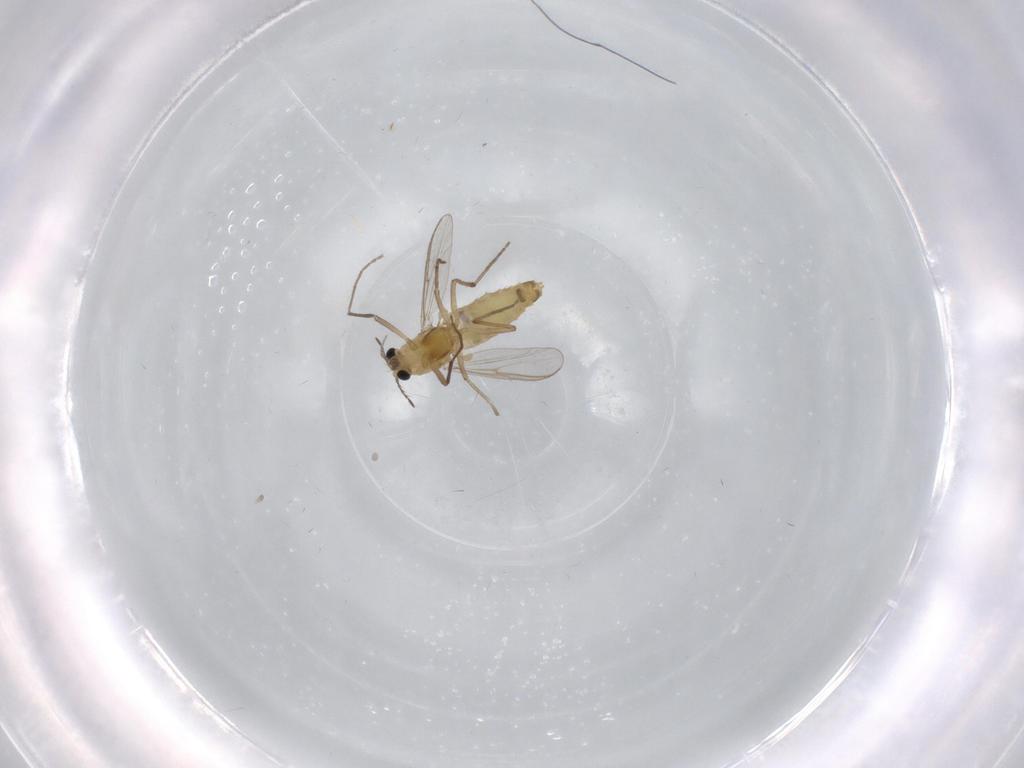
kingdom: Animalia
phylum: Arthropoda
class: Insecta
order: Diptera
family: Chironomidae
